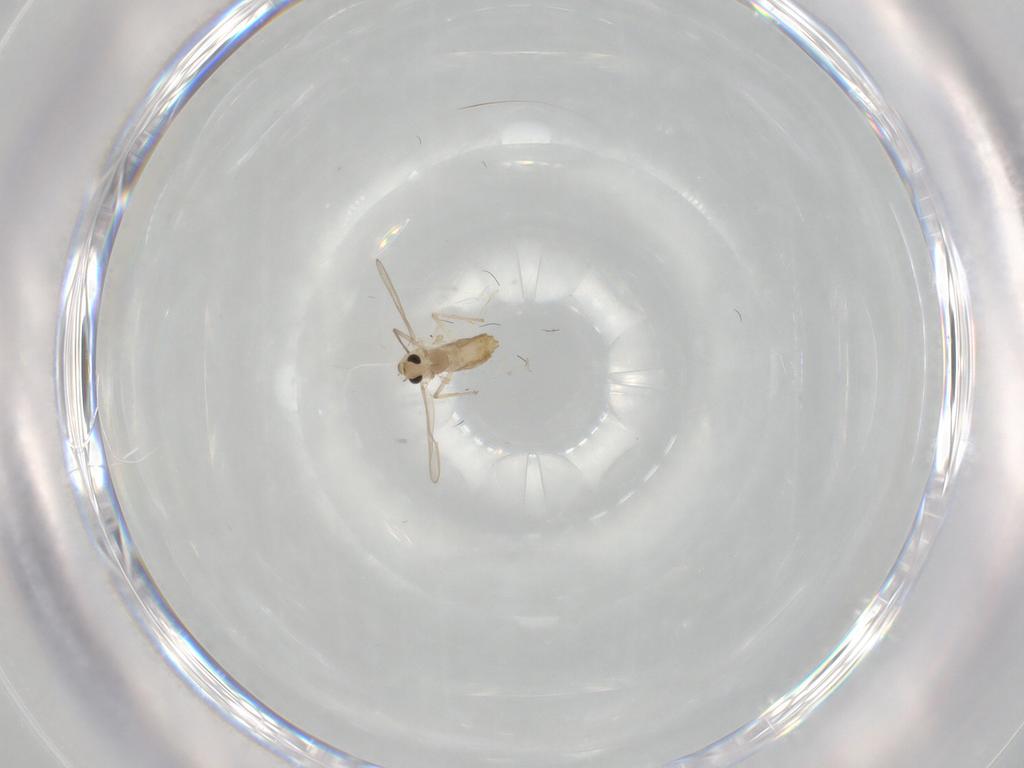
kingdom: Animalia
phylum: Arthropoda
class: Insecta
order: Diptera
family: Chironomidae
